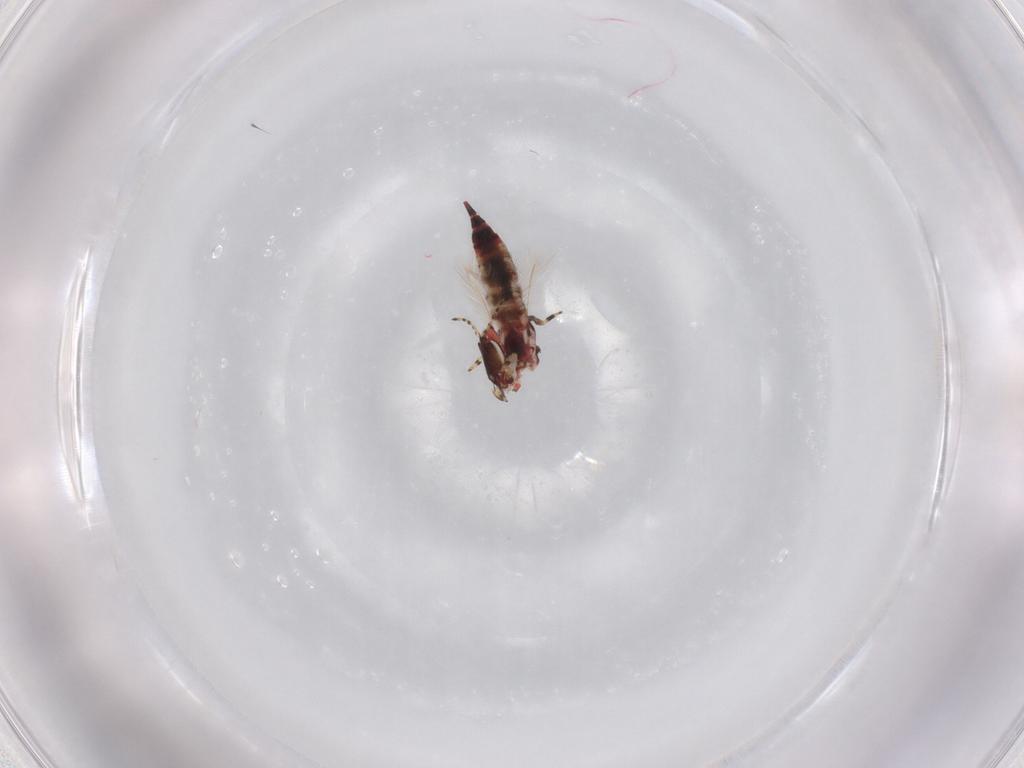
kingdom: Animalia
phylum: Arthropoda
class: Insecta
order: Thysanoptera
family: Phlaeothripidae
